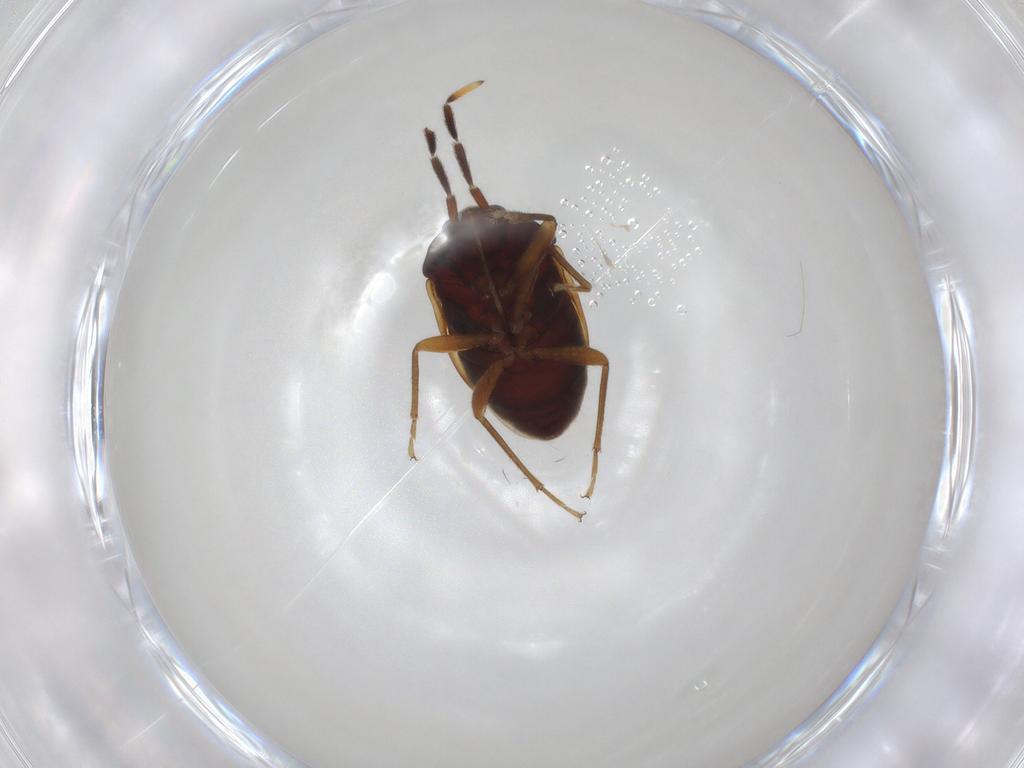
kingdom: Animalia
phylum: Arthropoda
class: Insecta
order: Hemiptera
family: Rhyparochromidae
